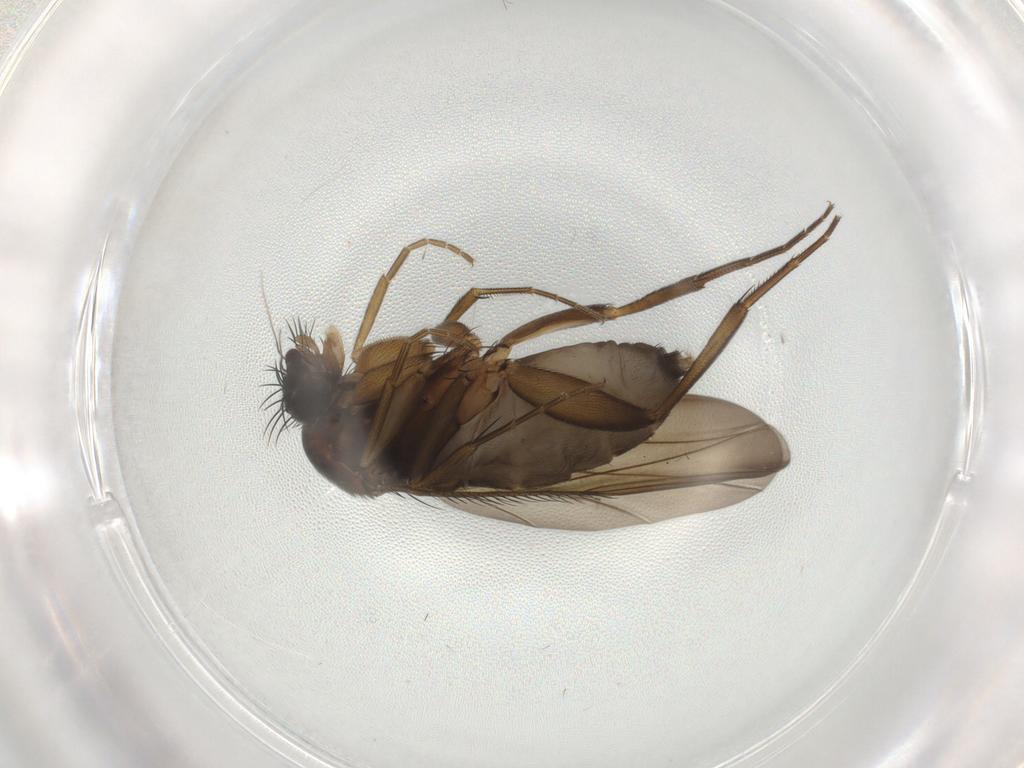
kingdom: Animalia
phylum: Arthropoda
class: Insecta
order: Diptera
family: Phoridae
